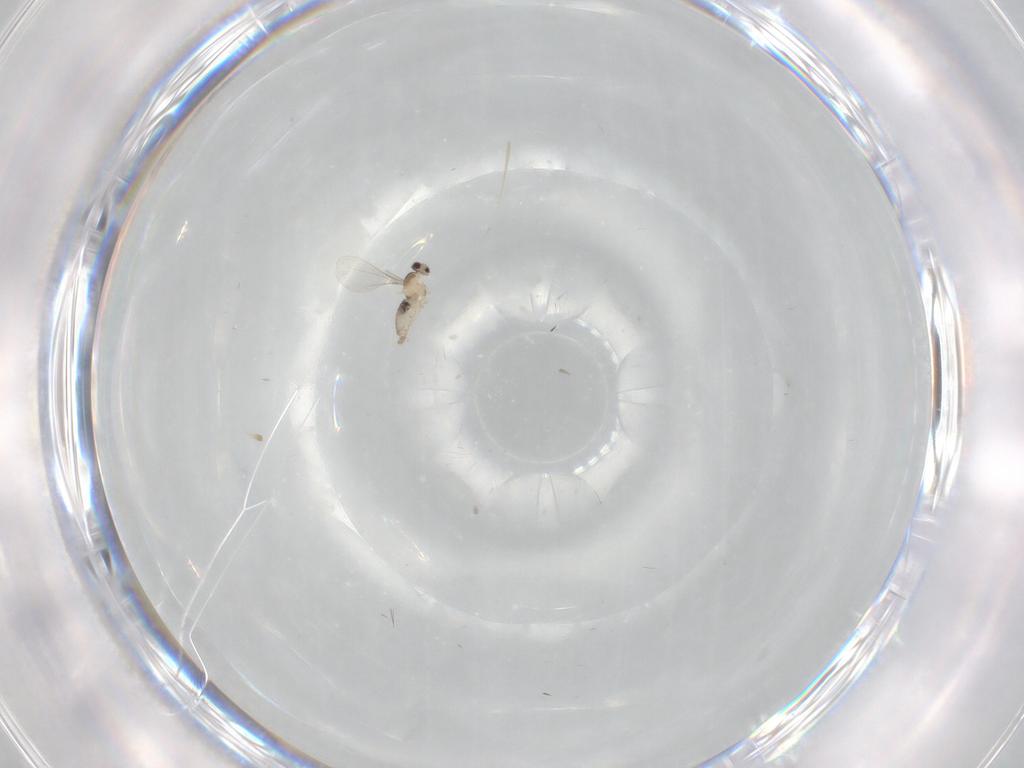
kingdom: Animalia
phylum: Arthropoda
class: Insecta
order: Diptera
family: Cecidomyiidae
